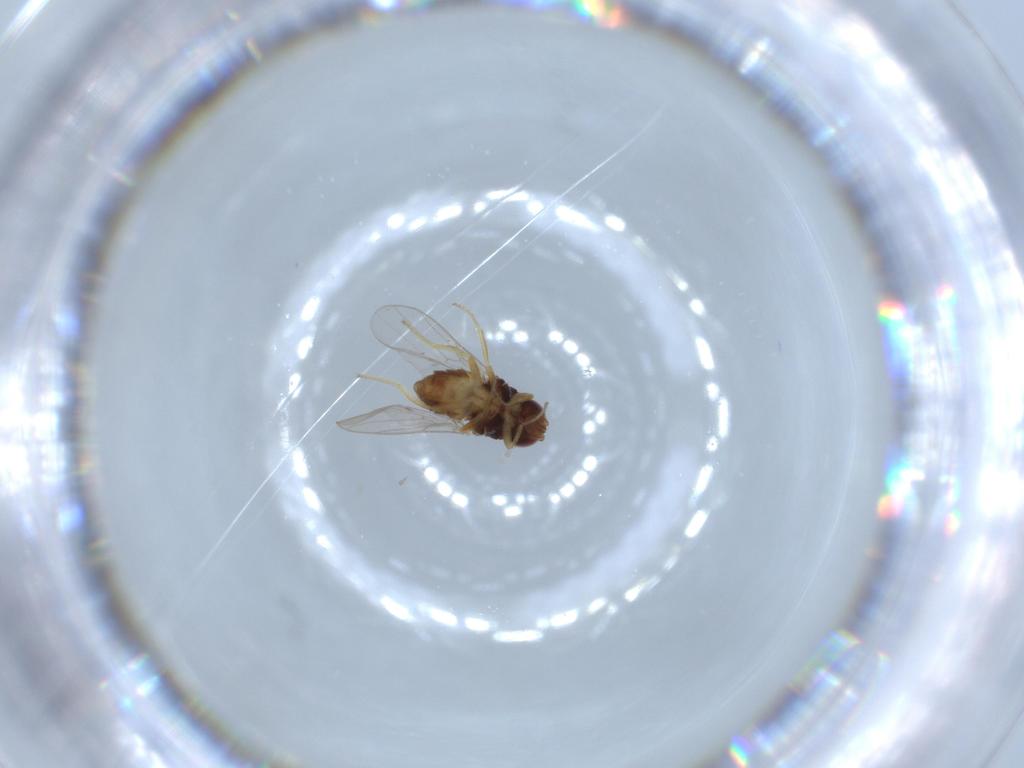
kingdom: Animalia
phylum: Arthropoda
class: Insecta
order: Diptera
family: Chloropidae
